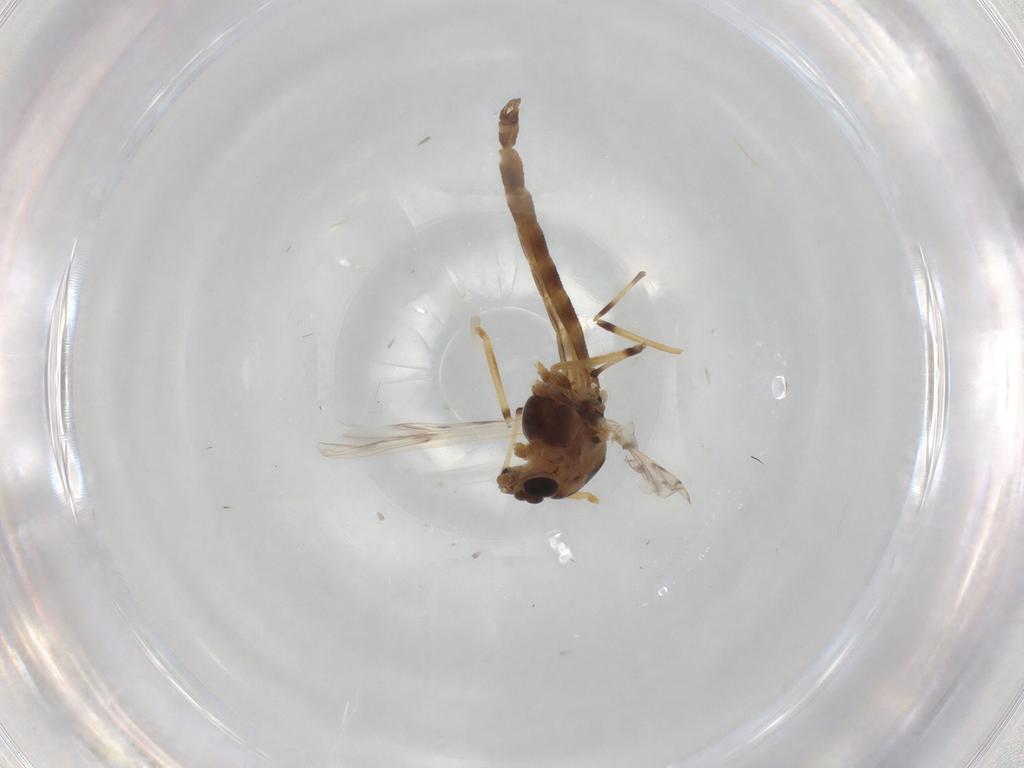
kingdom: Animalia
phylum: Arthropoda
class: Insecta
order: Diptera
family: Chironomidae
